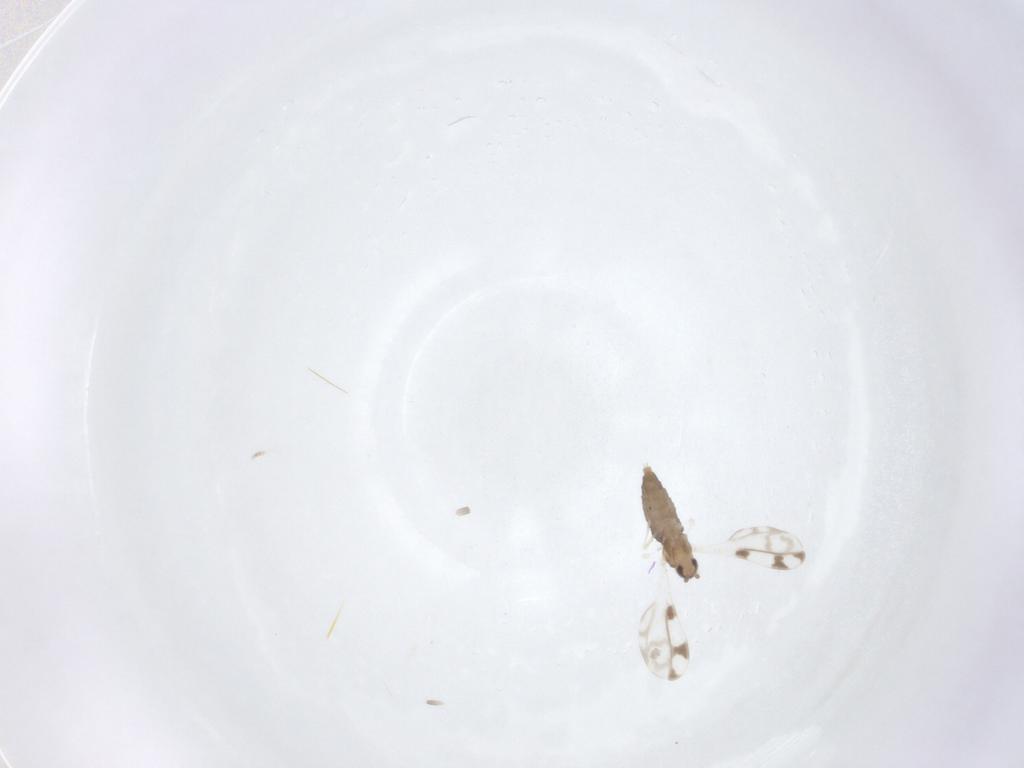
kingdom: Animalia
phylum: Arthropoda
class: Insecta
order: Diptera
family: Cecidomyiidae
